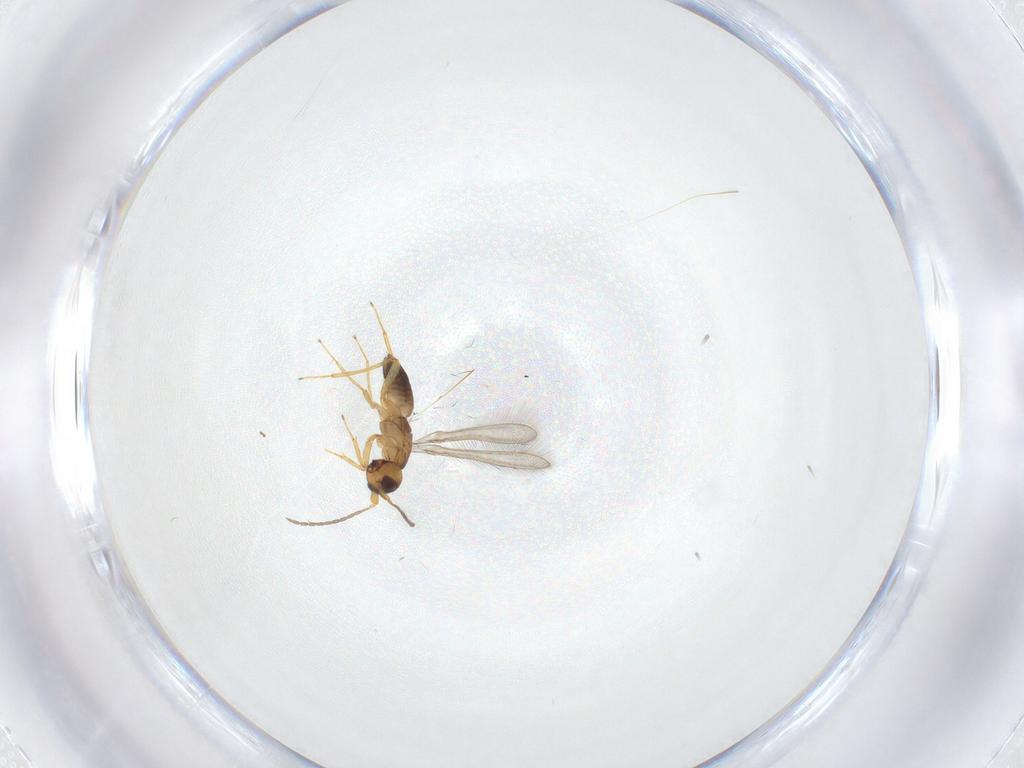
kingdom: Animalia
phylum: Arthropoda
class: Insecta
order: Hymenoptera
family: Mymaridae
